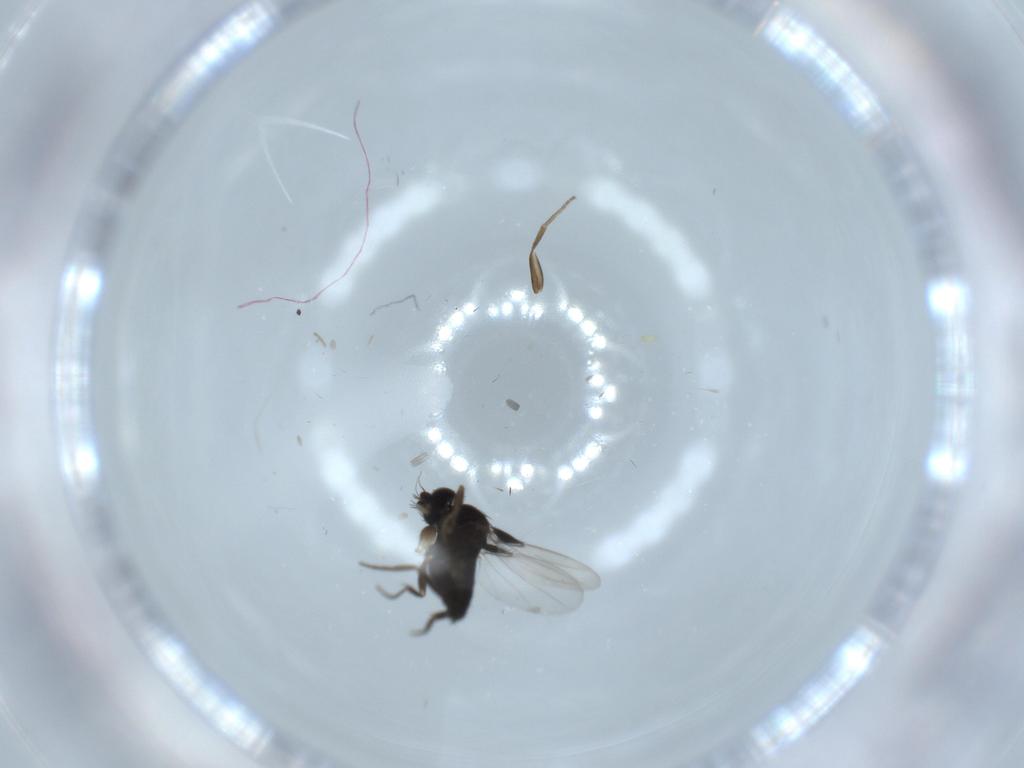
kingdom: Animalia
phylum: Arthropoda
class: Insecta
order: Diptera
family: Phoridae
